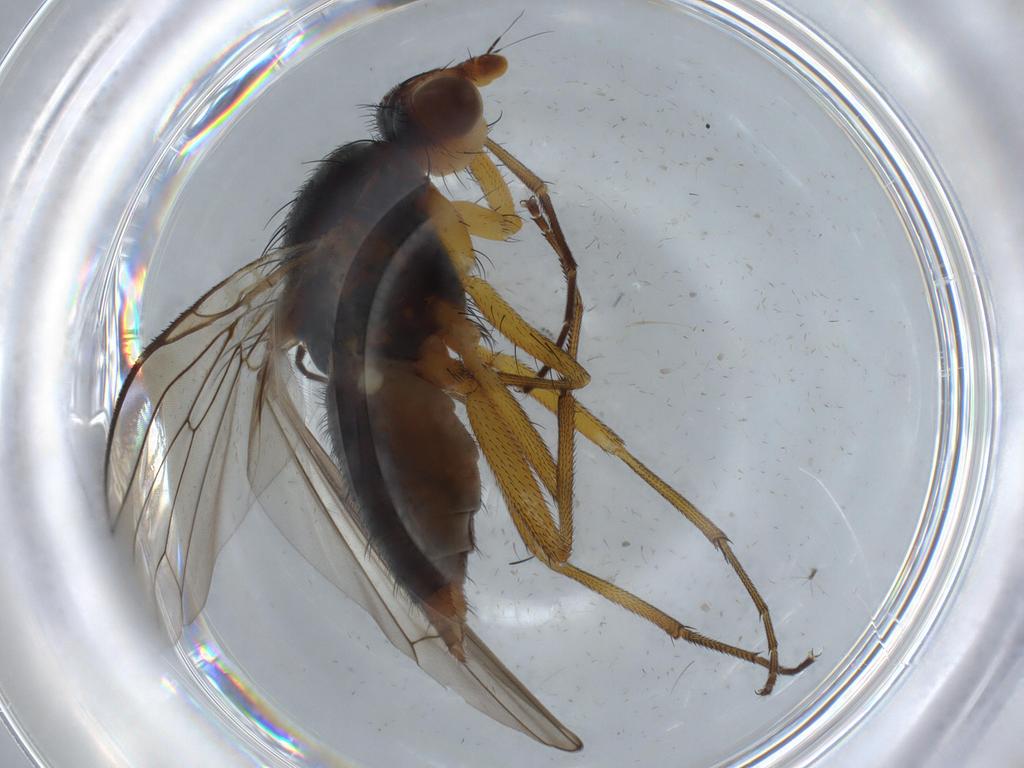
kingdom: Animalia
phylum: Arthropoda
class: Insecta
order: Diptera
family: Heleomyzidae
